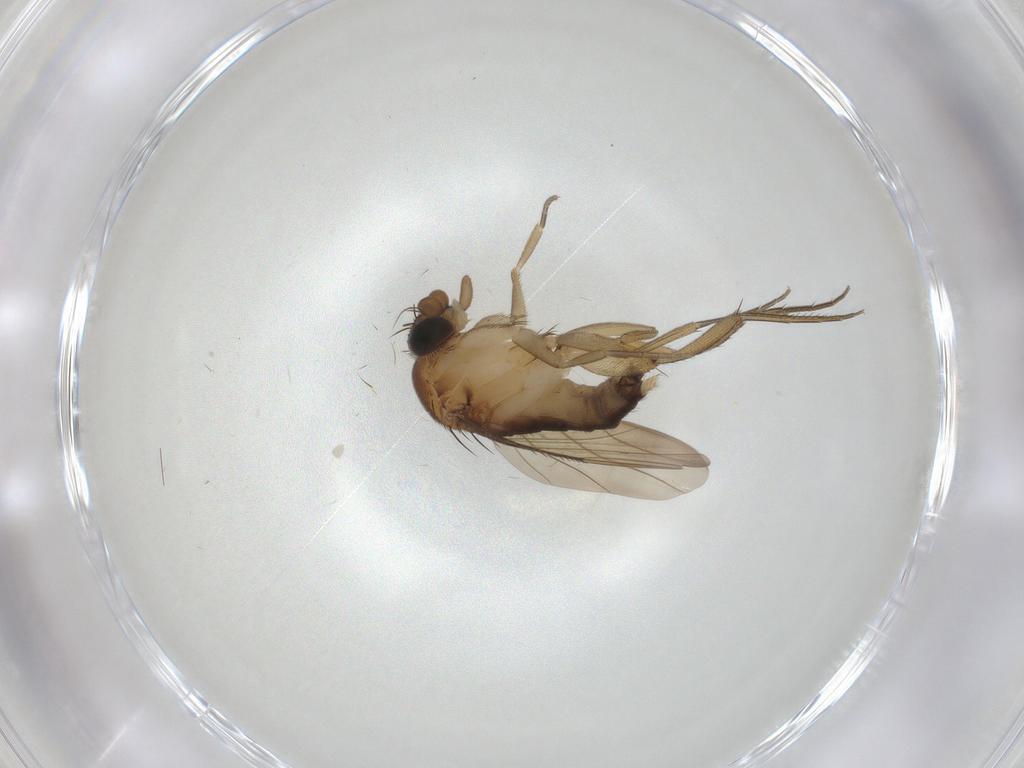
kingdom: Animalia
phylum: Arthropoda
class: Insecta
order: Diptera
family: Phoridae
